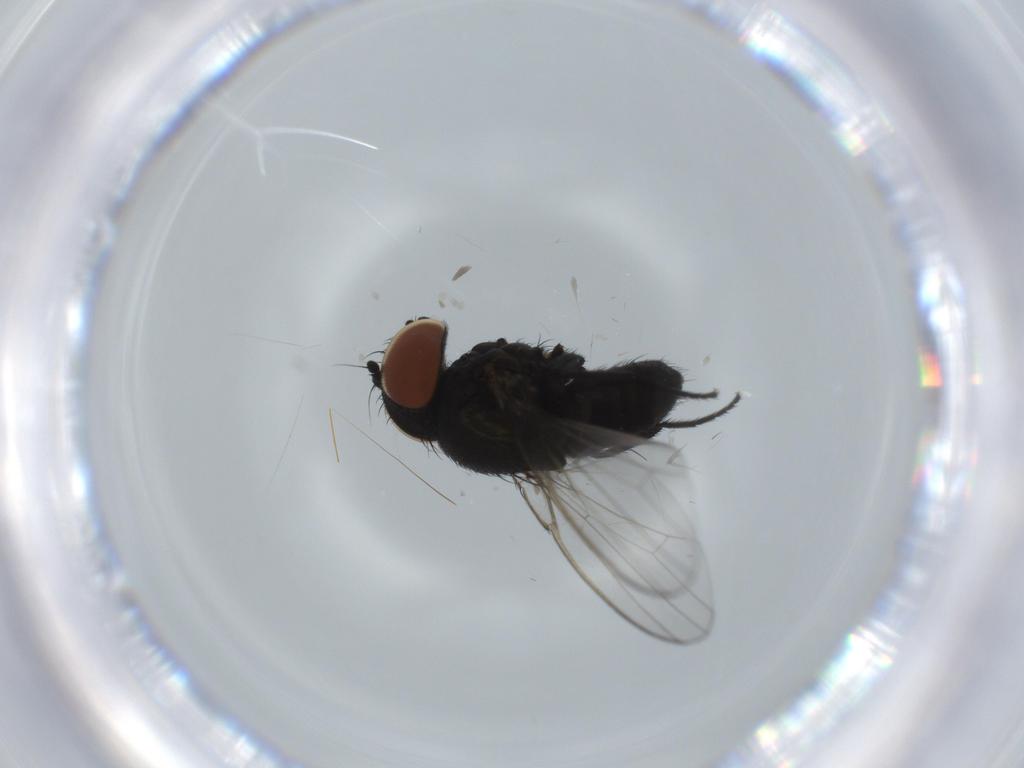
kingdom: Animalia
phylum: Arthropoda
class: Insecta
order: Diptera
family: Milichiidae
